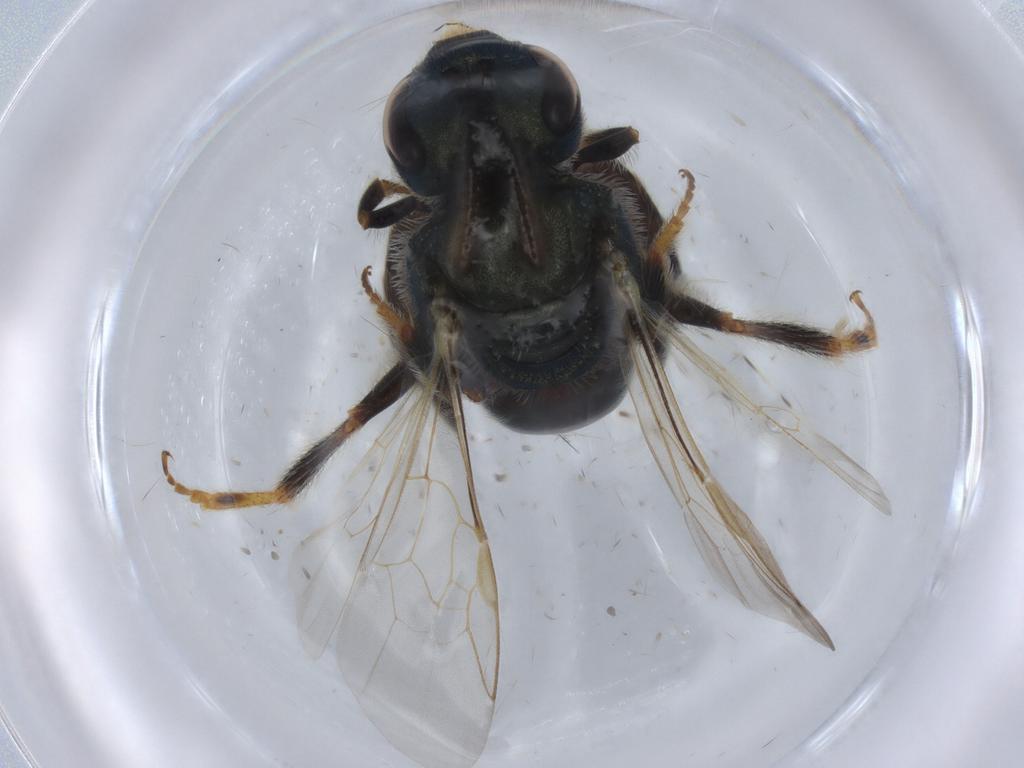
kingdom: Animalia
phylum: Arthropoda
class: Insecta
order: Hymenoptera
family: Halictidae
